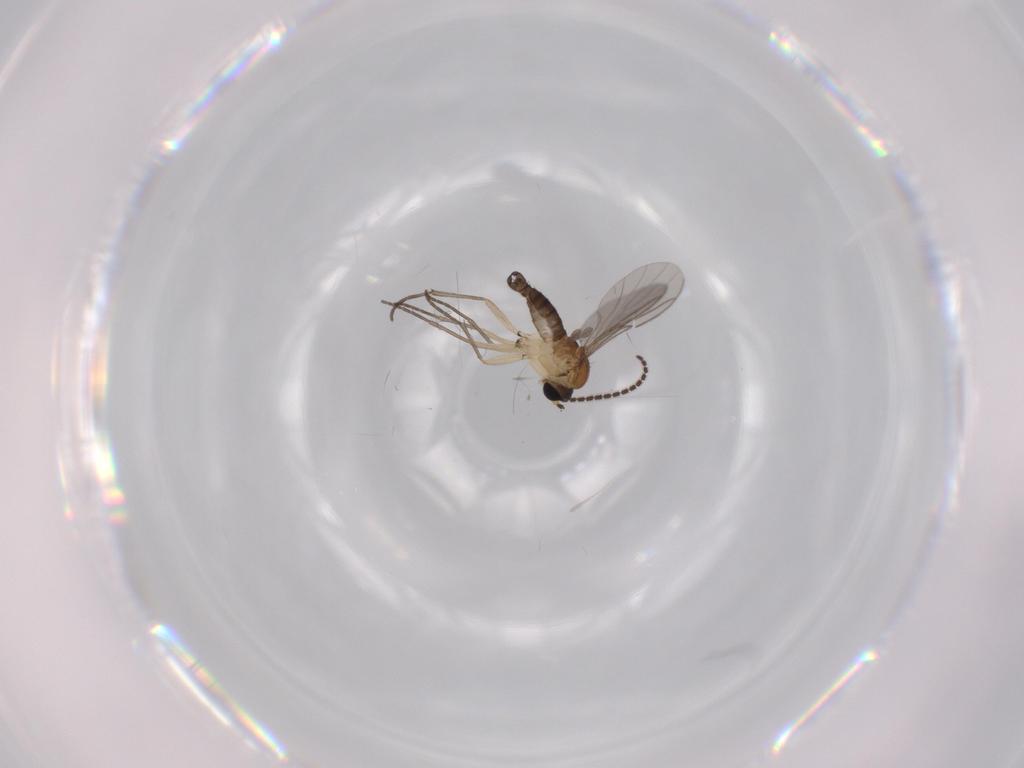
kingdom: Animalia
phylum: Arthropoda
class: Insecta
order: Diptera
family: Sciaridae
